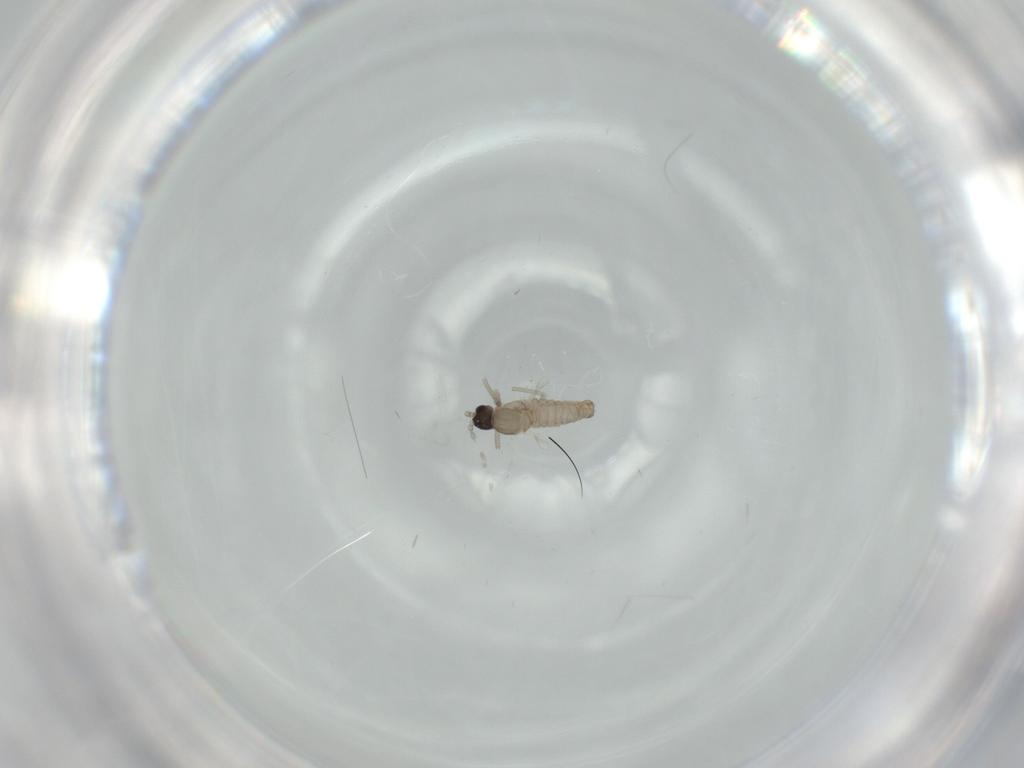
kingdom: Animalia
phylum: Arthropoda
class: Insecta
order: Diptera
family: Cecidomyiidae
